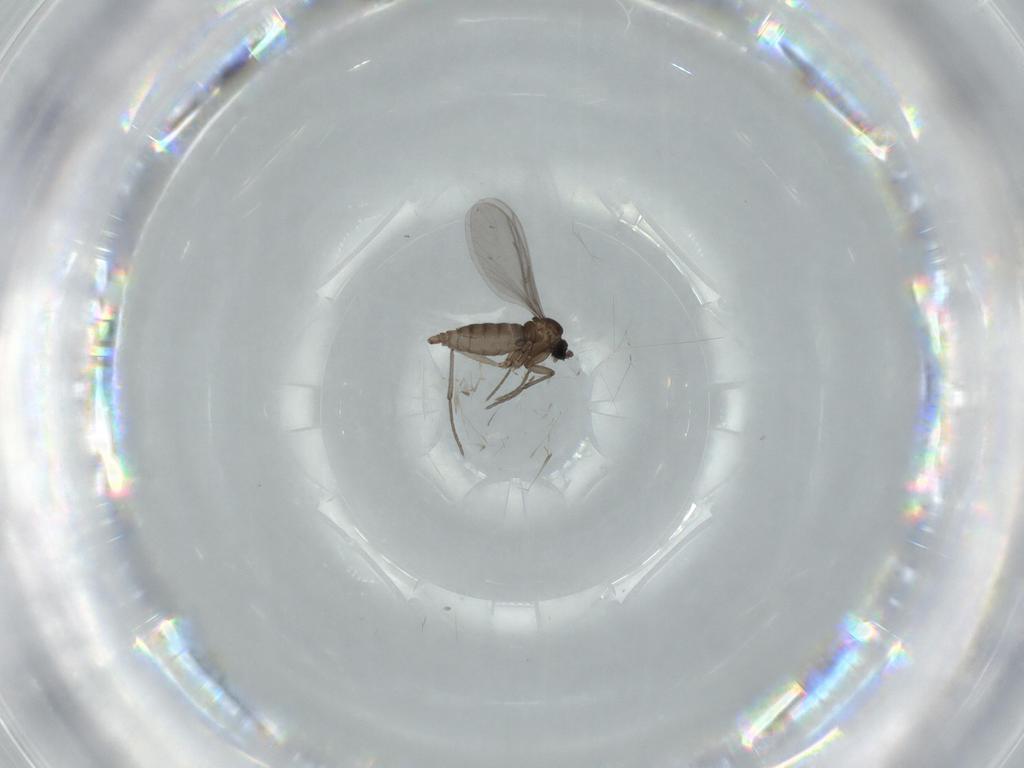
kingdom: Animalia
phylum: Arthropoda
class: Insecta
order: Diptera
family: Sciaridae
